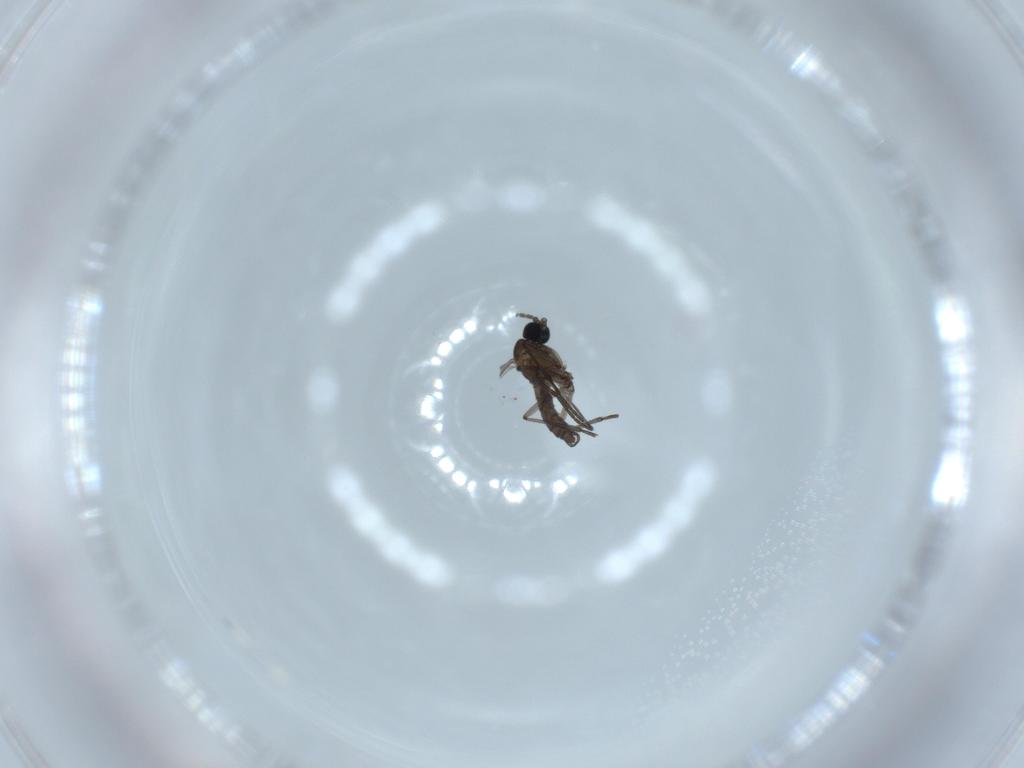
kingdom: Animalia
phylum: Arthropoda
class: Insecta
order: Diptera
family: Sciaridae
